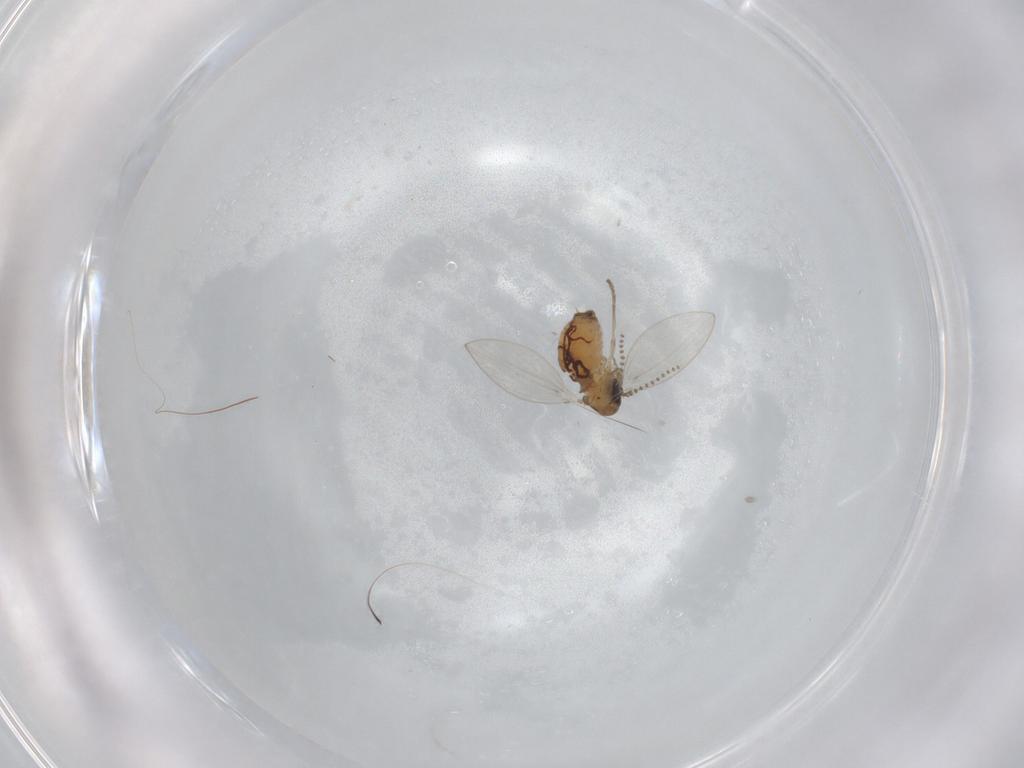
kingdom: Animalia
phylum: Arthropoda
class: Insecta
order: Diptera
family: Psychodidae
